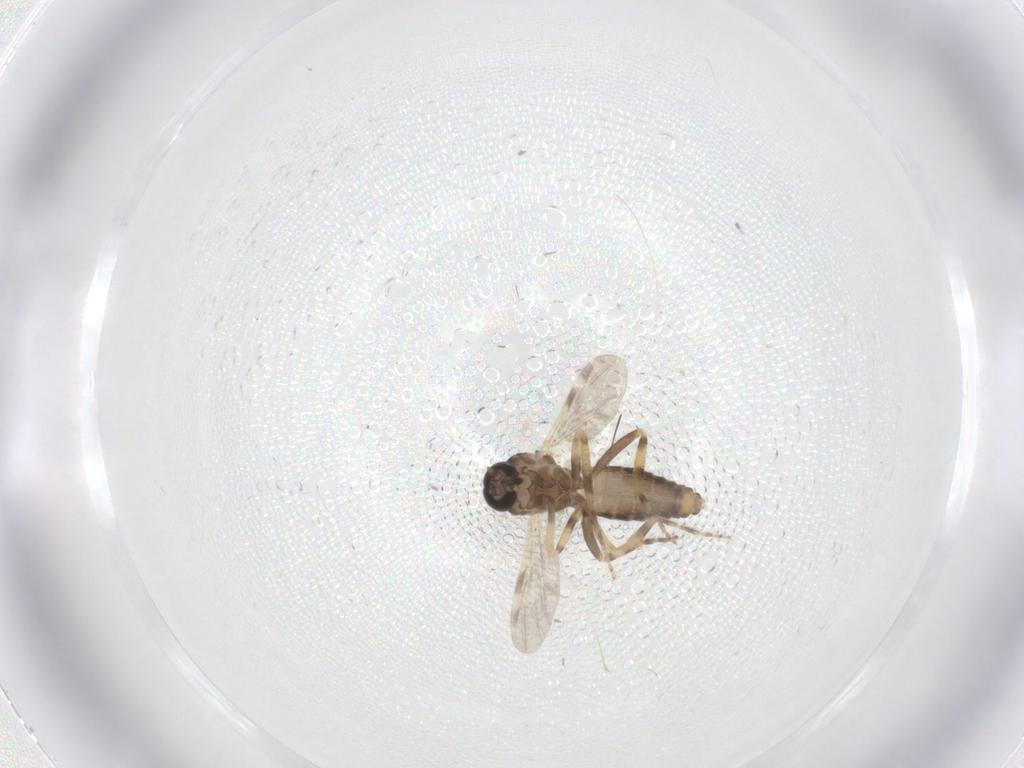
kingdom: Animalia
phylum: Arthropoda
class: Insecta
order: Diptera
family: Ceratopogonidae
